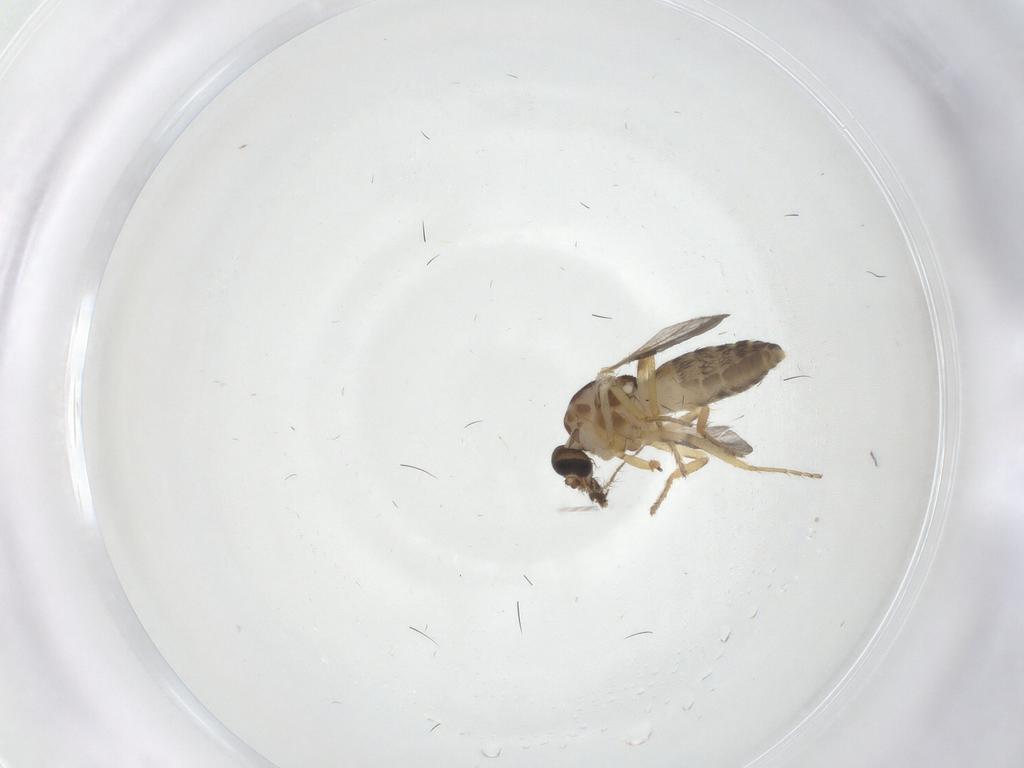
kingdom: Animalia
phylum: Arthropoda
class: Insecta
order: Diptera
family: Ceratopogonidae
